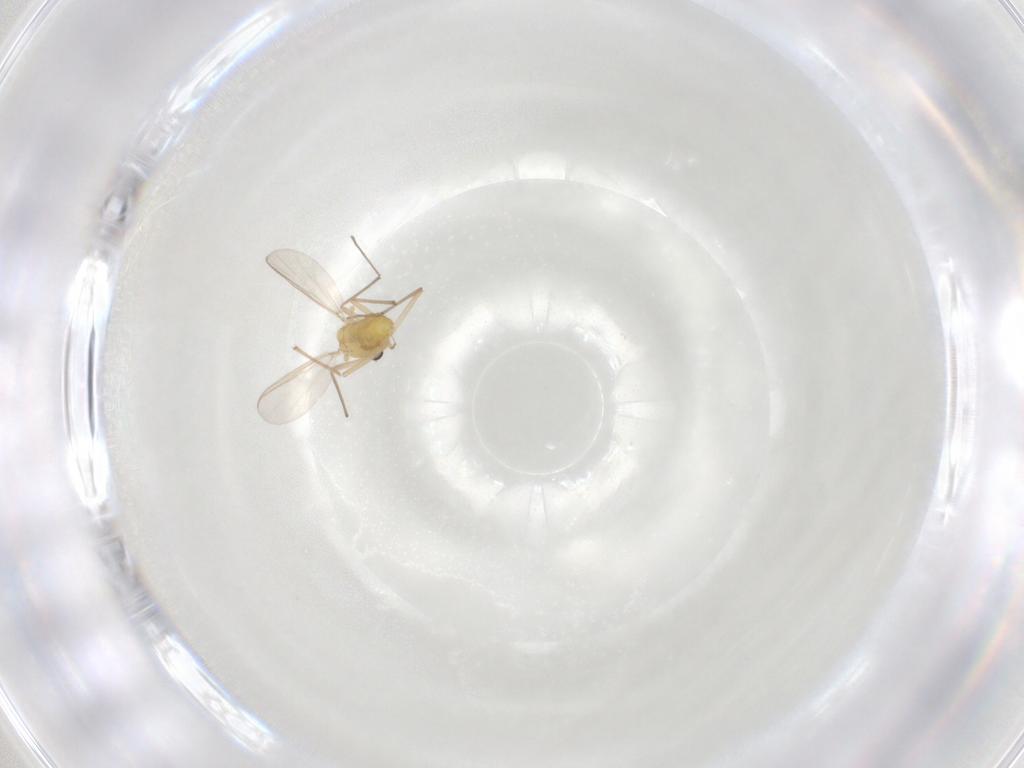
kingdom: Animalia
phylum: Arthropoda
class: Insecta
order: Diptera
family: Chironomidae
